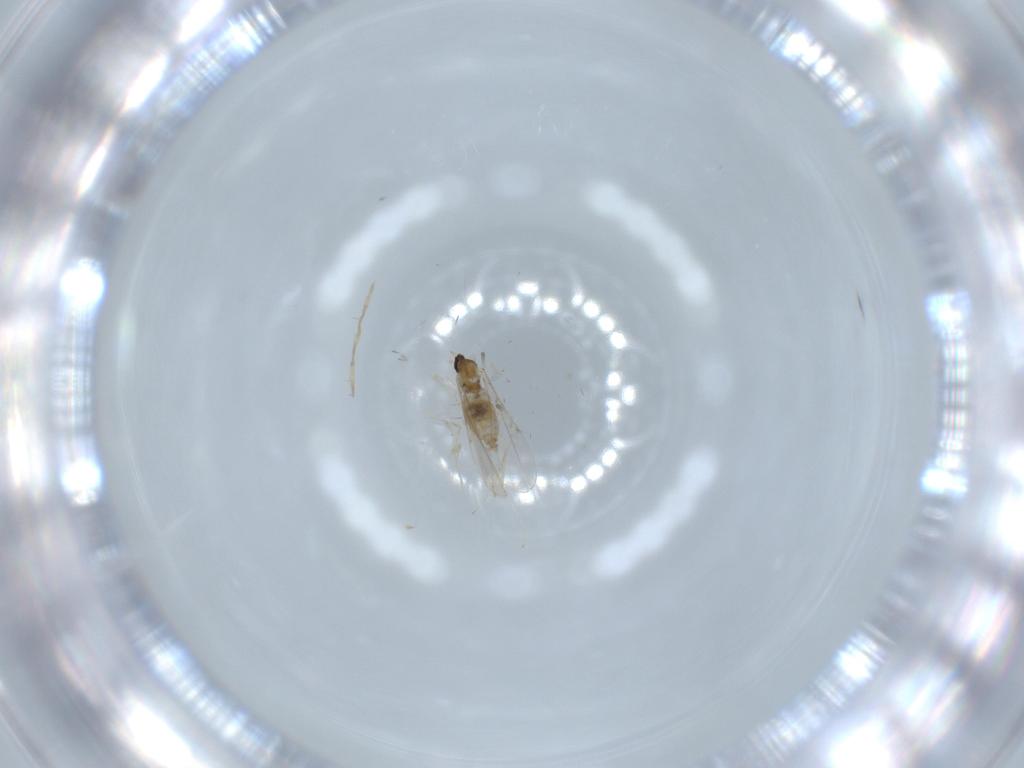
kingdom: Animalia
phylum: Arthropoda
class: Insecta
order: Diptera
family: Cecidomyiidae
